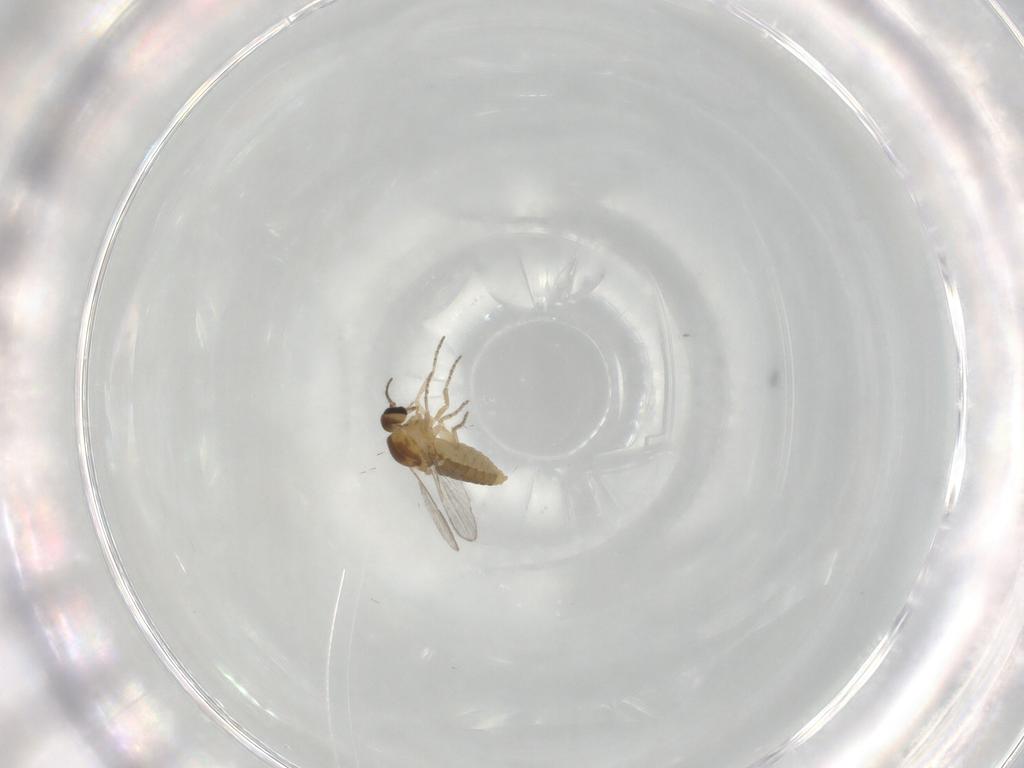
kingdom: Animalia
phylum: Arthropoda
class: Insecta
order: Diptera
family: Ceratopogonidae
